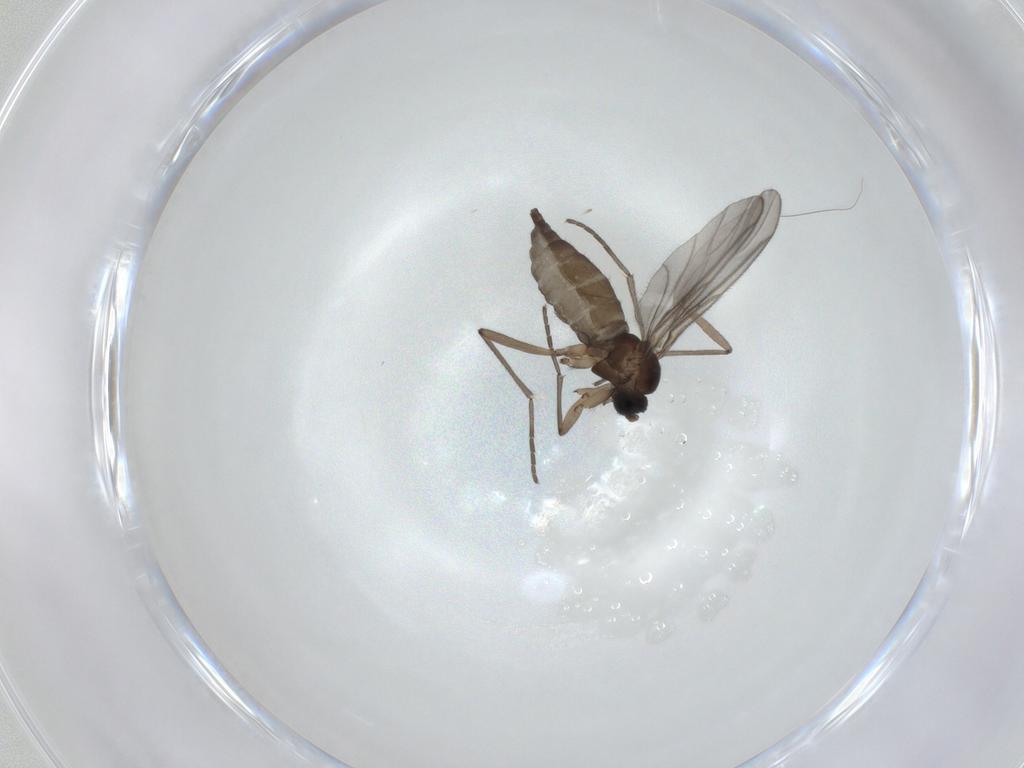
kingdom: Animalia
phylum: Arthropoda
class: Insecta
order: Diptera
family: Sciaridae
